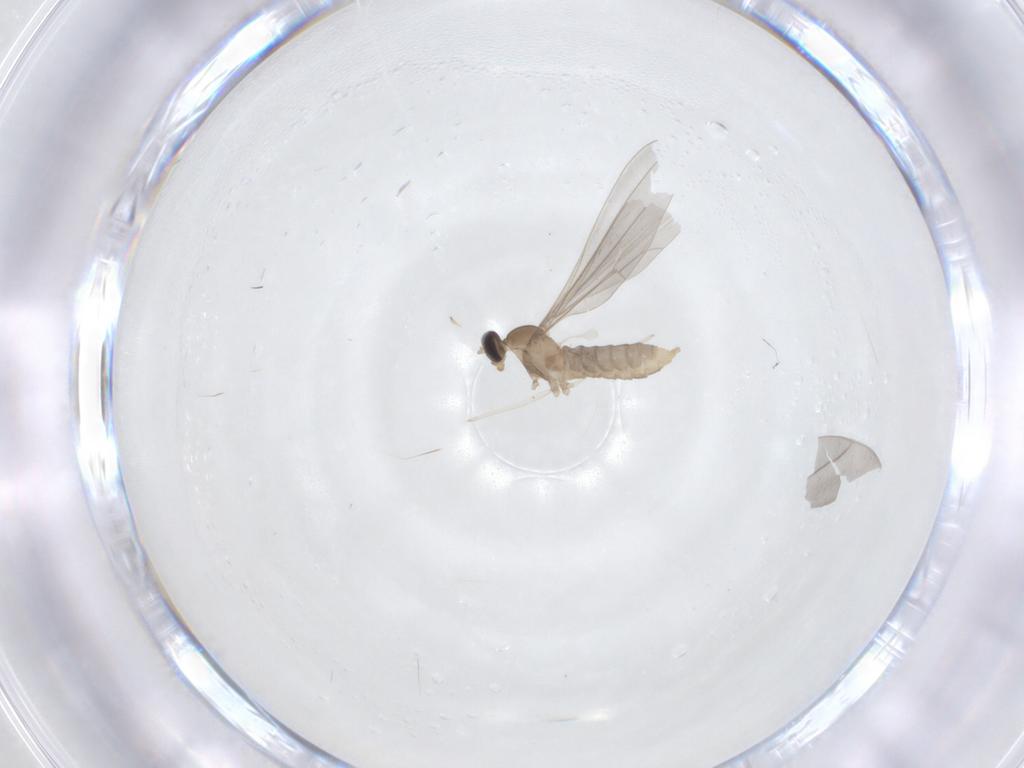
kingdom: Animalia
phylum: Arthropoda
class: Insecta
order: Diptera
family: Cecidomyiidae
